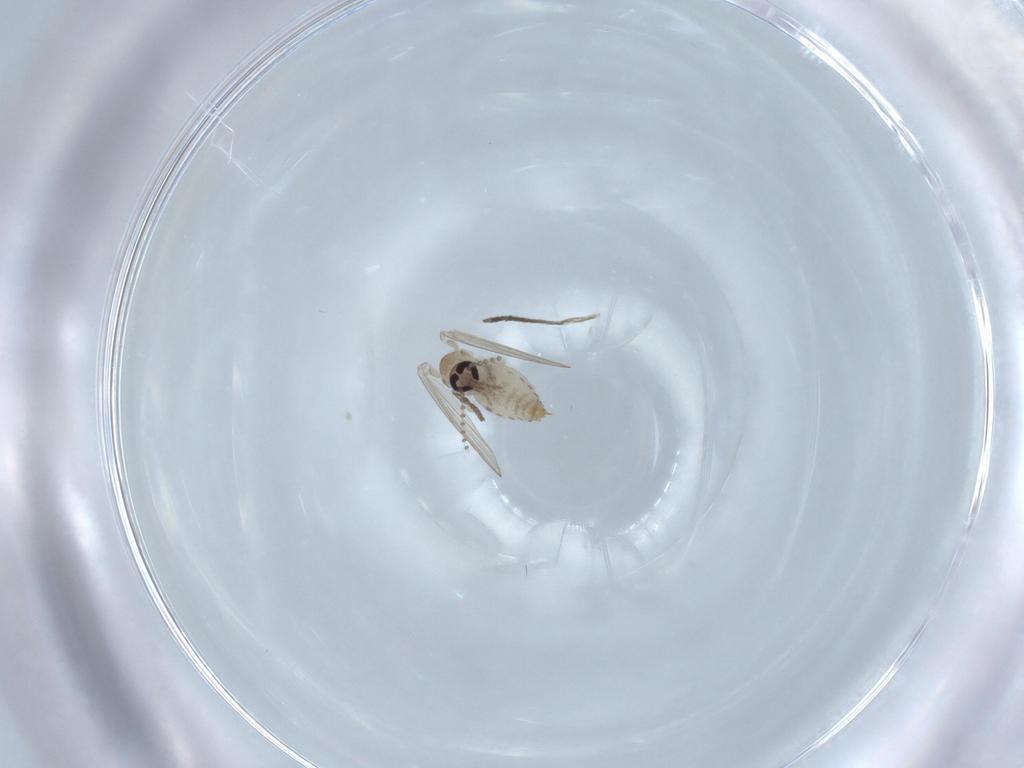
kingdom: Animalia
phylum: Arthropoda
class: Insecta
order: Diptera
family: Psychodidae
